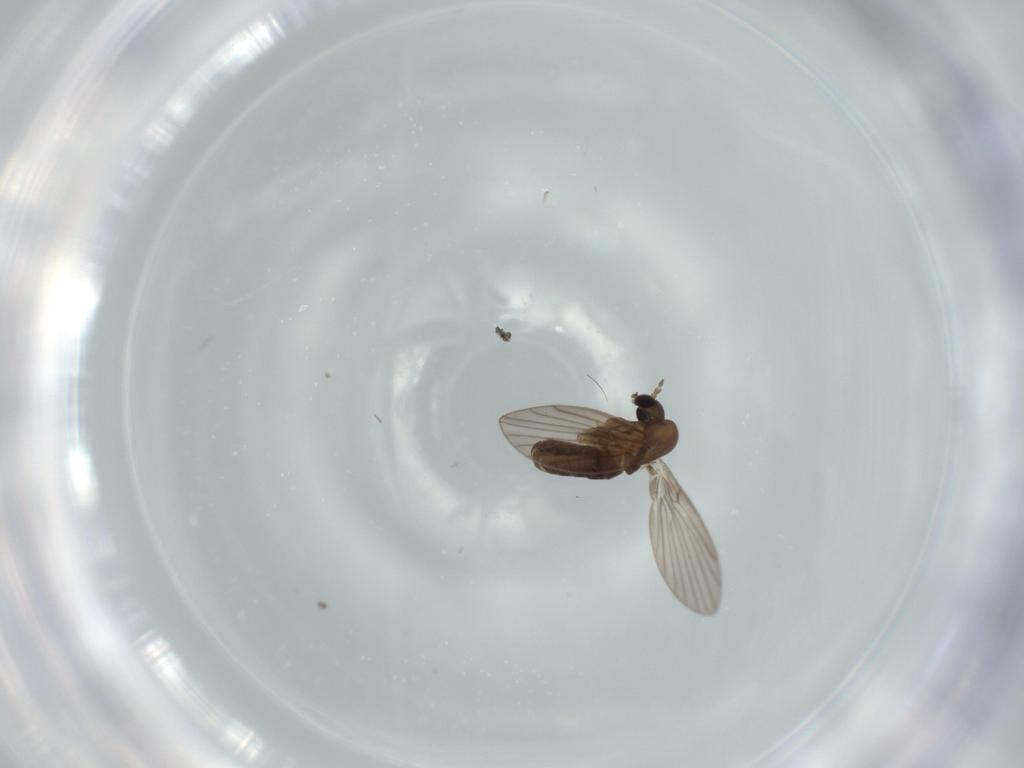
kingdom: Animalia
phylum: Arthropoda
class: Insecta
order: Diptera
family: Psychodidae
